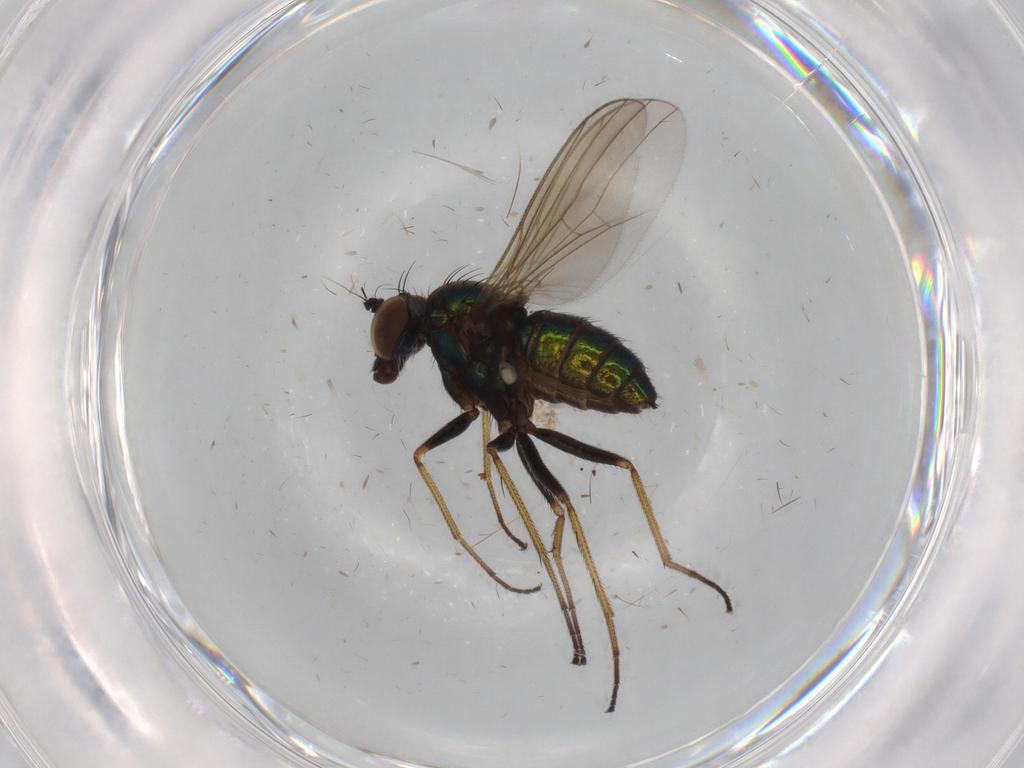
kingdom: Animalia
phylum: Arthropoda
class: Insecta
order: Diptera
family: Dolichopodidae
